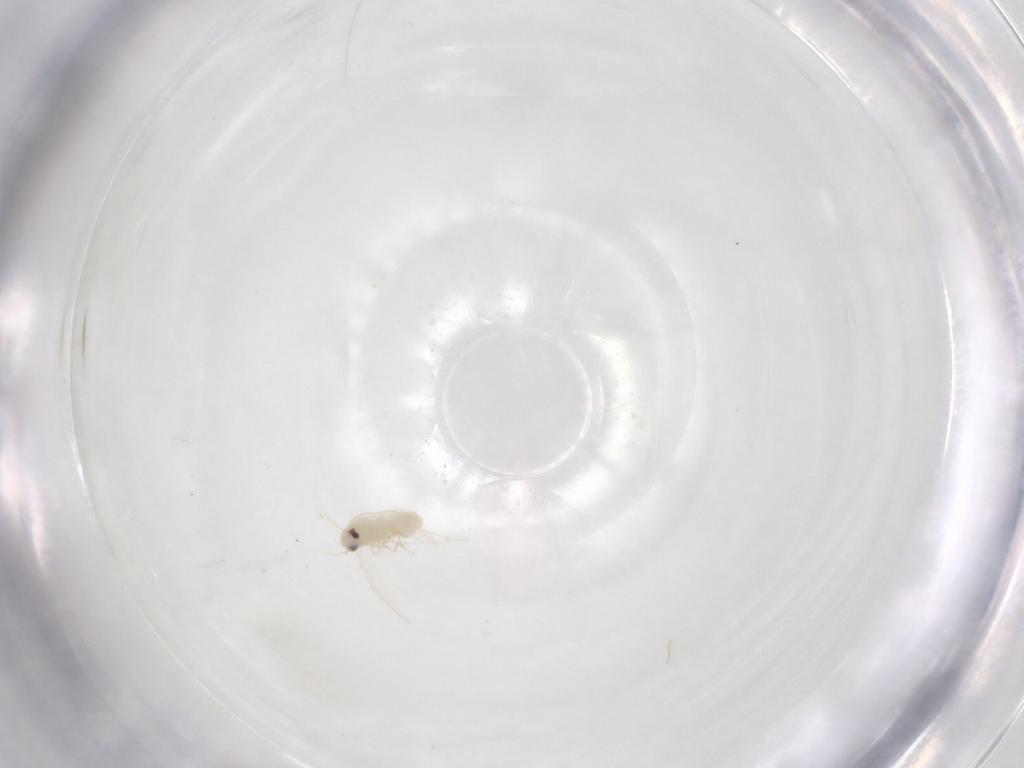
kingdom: Animalia
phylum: Arthropoda
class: Insecta
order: Hemiptera
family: Aleyrodidae
